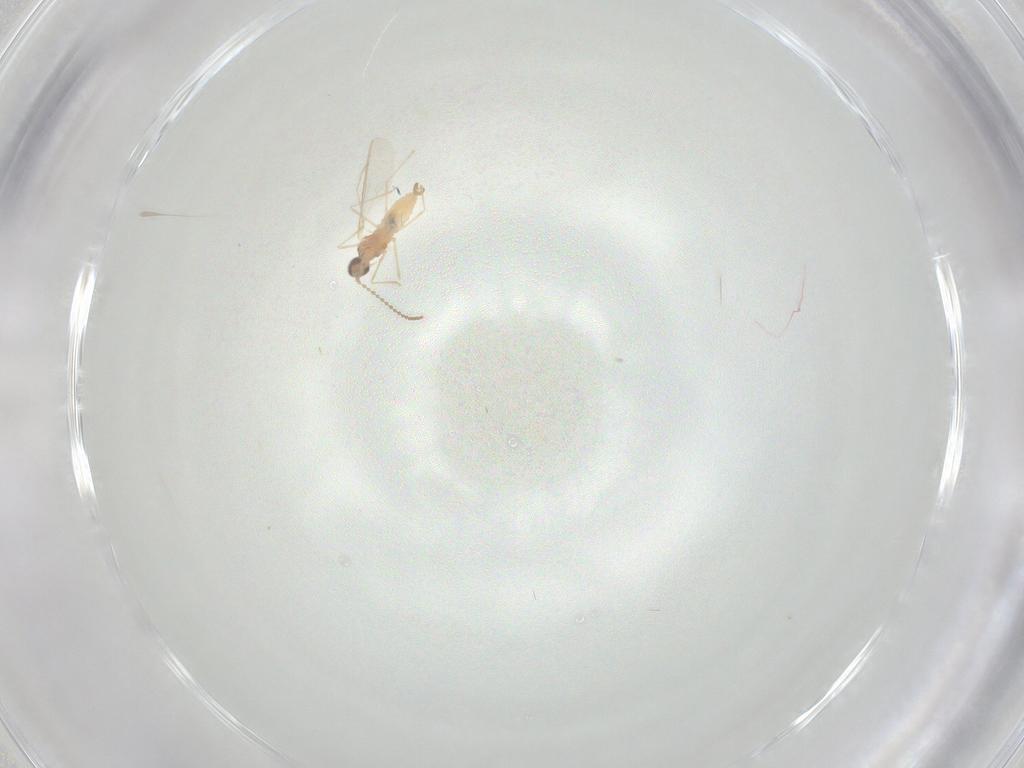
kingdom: Animalia
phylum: Arthropoda
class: Insecta
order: Diptera
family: Cecidomyiidae
